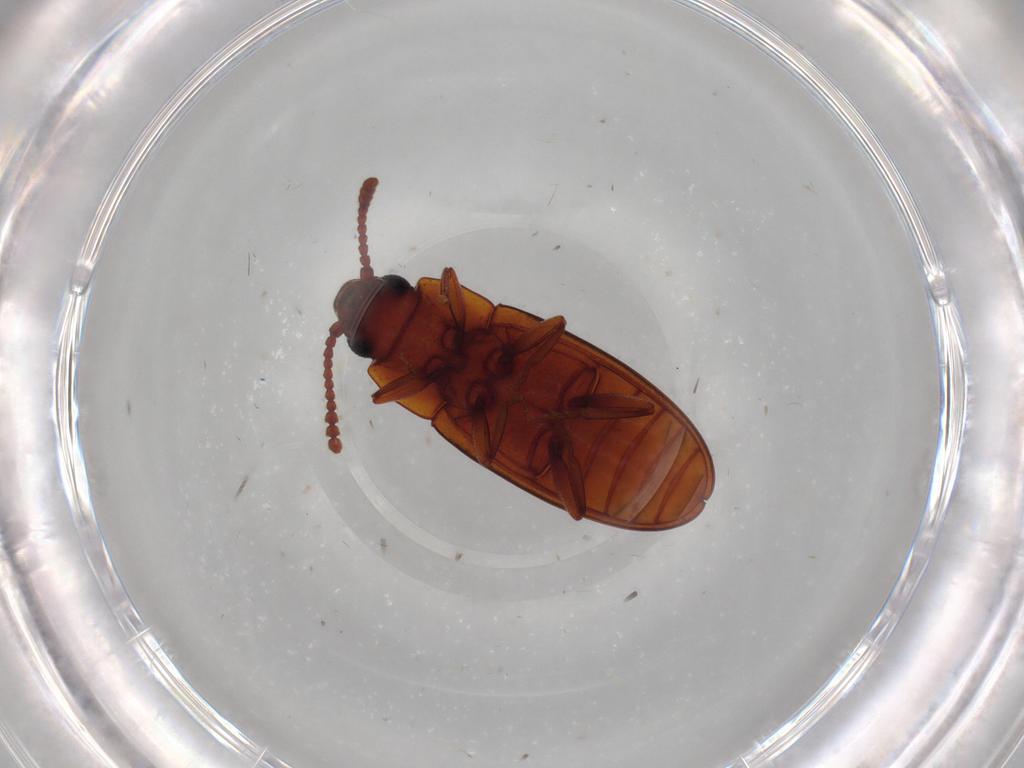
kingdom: Animalia
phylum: Arthropoda
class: Insecta
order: Coleoptera
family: Erotylidae
